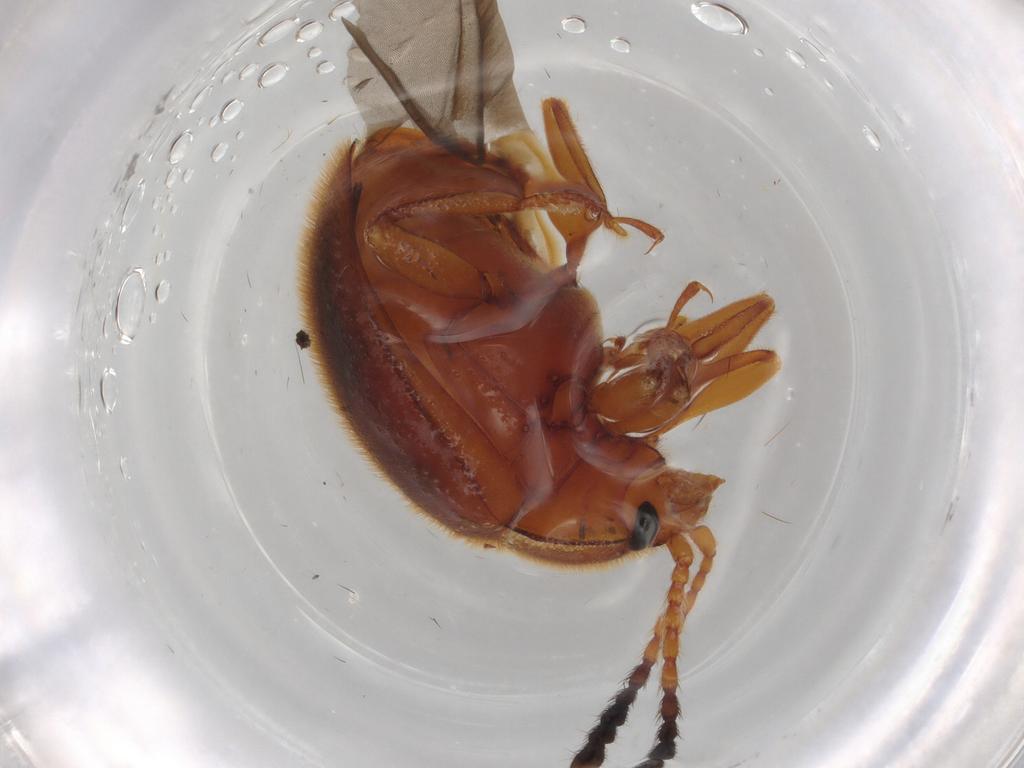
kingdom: Animalia
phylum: Arthropoda
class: Insecta
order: Coleoptera
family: Endomychidae
